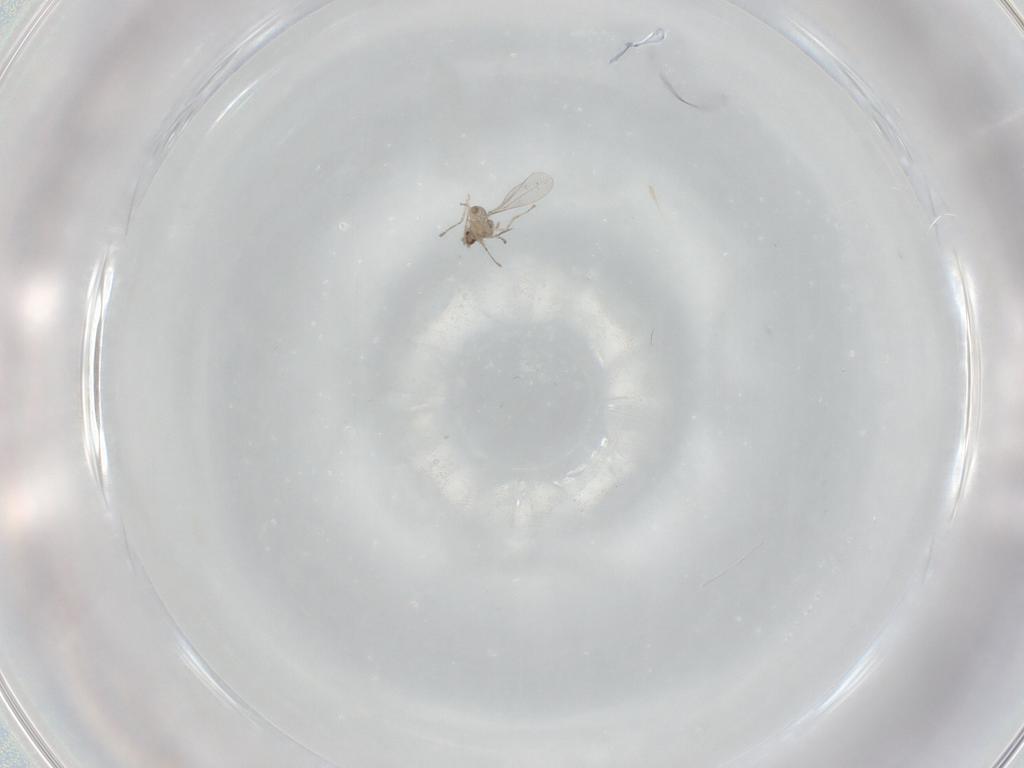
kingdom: Animalia
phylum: Arthropoda
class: Insecta
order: Diptera
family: Cecidomyiidae
